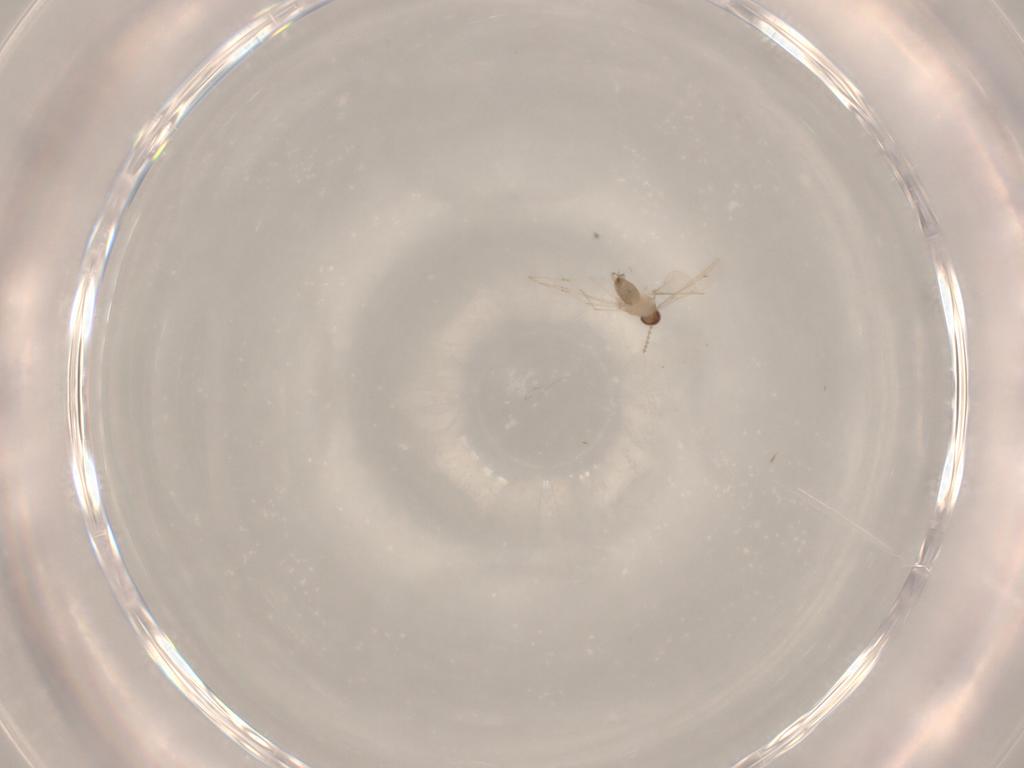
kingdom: Animalia
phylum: Arthropoda
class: Insecta
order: Diptera
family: Cecidomyiidae
